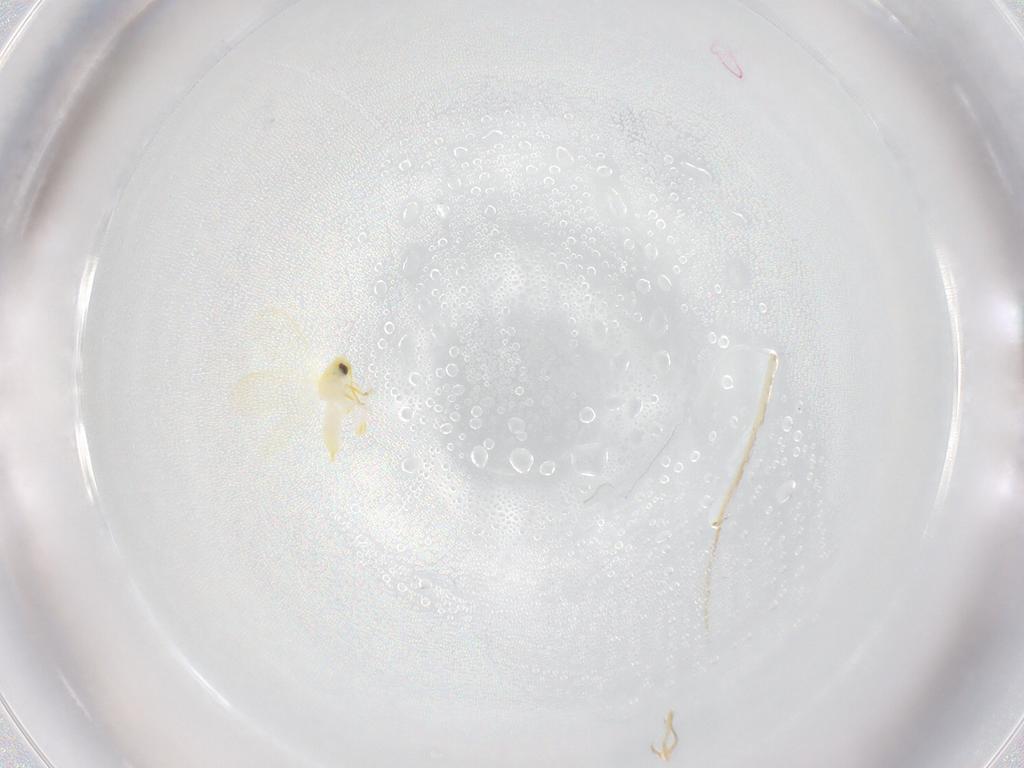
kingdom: Animalia
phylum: Arthropoda
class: Insecta
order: Hemiptera
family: Aleyrodidae
